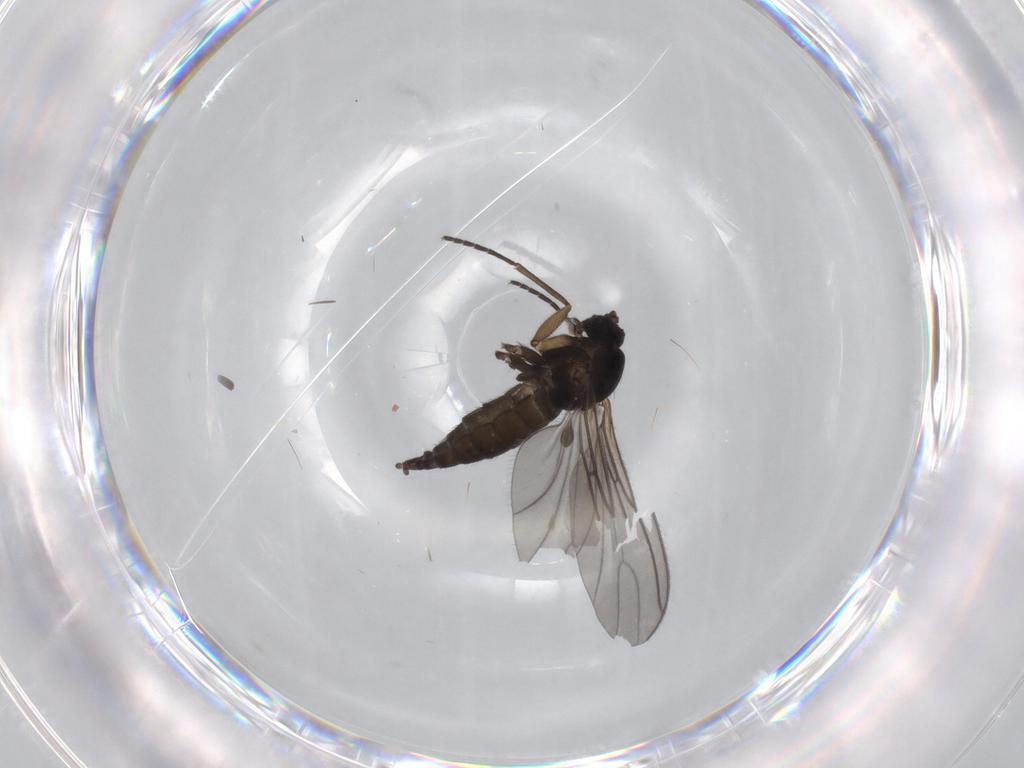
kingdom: Animalia
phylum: Arthropoda
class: Insecta
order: Diptera
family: Sciaridae
